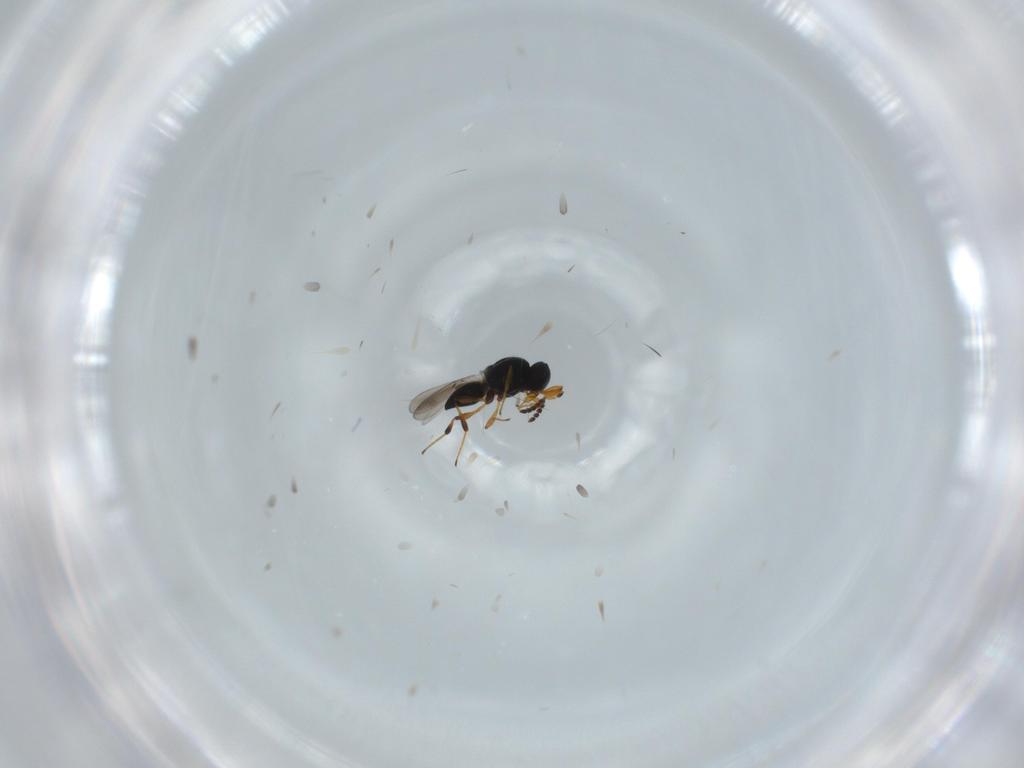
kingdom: Animalia
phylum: Arthropoda
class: Insecta
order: Hymenoptera
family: Platygastridae
